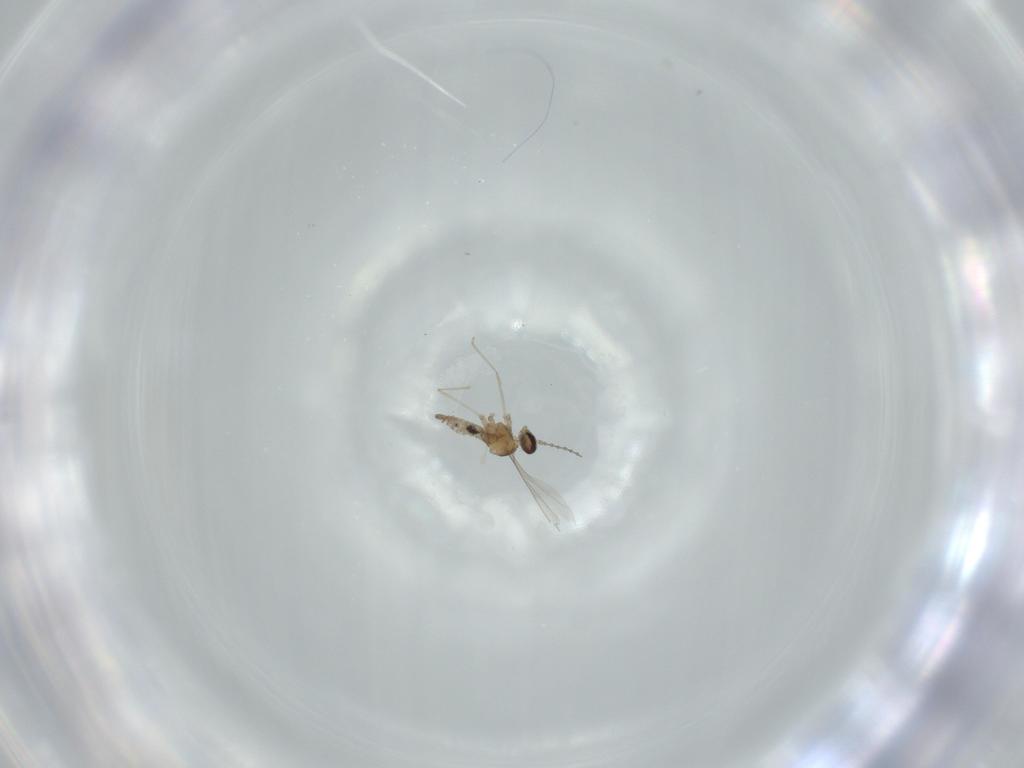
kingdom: Animalia
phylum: Arthropoda
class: Insecta
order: Diptera
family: Cecidomyiidae
